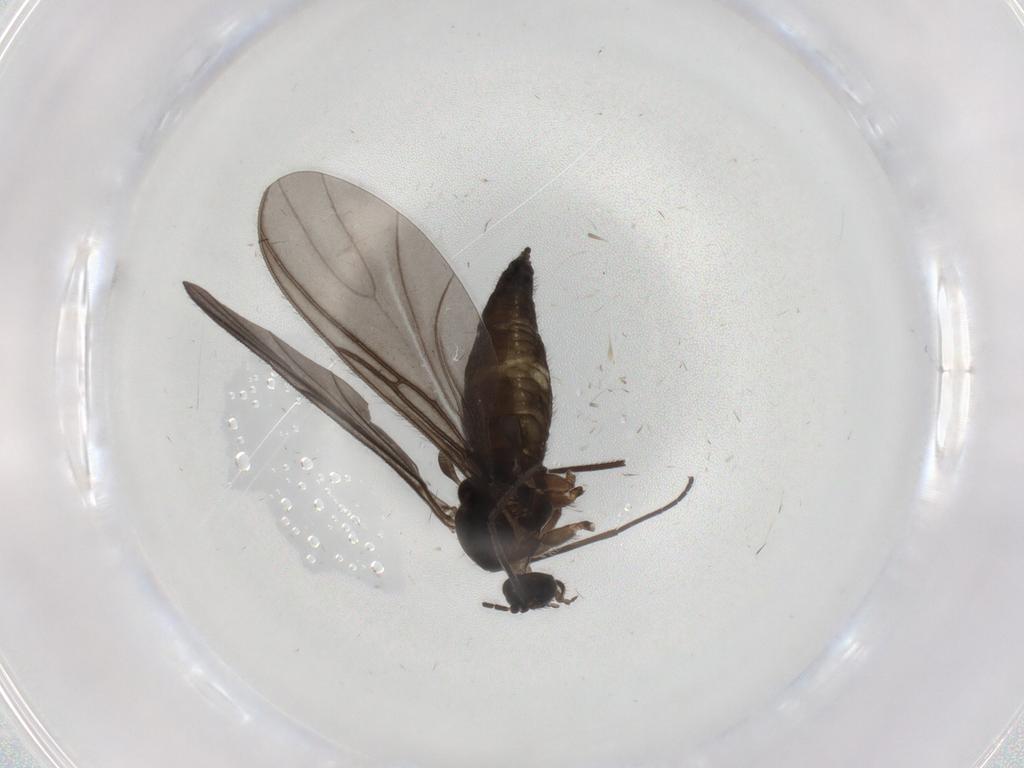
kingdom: Animalia
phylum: Arthropoda
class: Insecta
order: Diptera
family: Sciaridae
